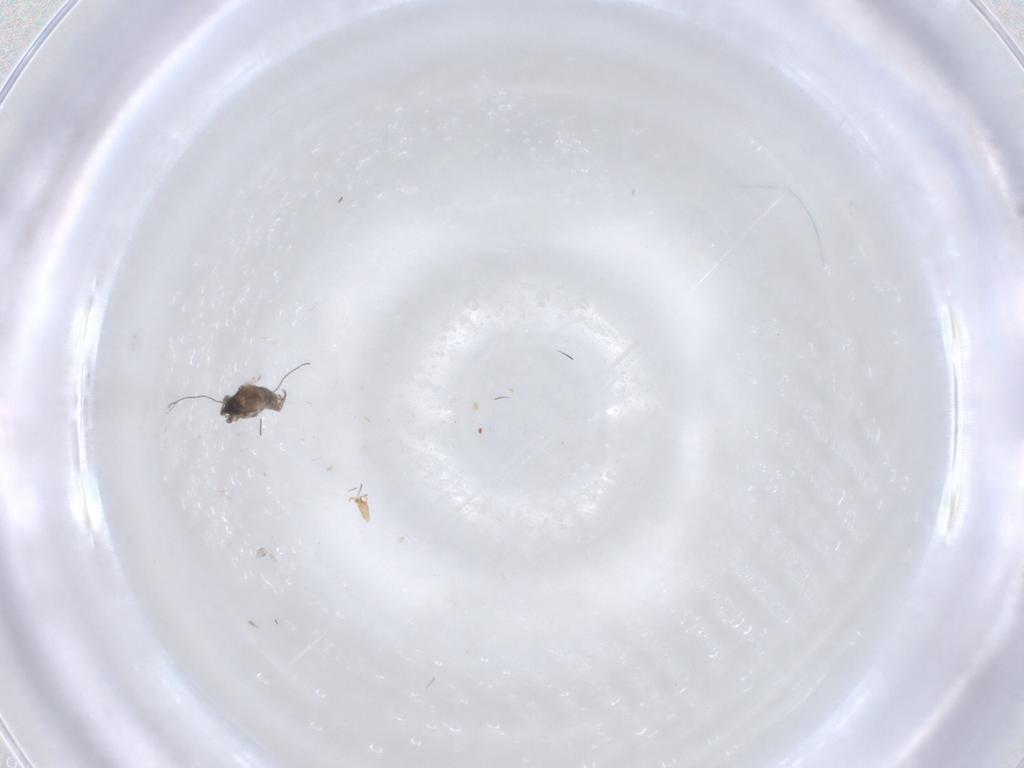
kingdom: Animalia
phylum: Arthropoda
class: Insecta
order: Diptera
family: Psychodidae
